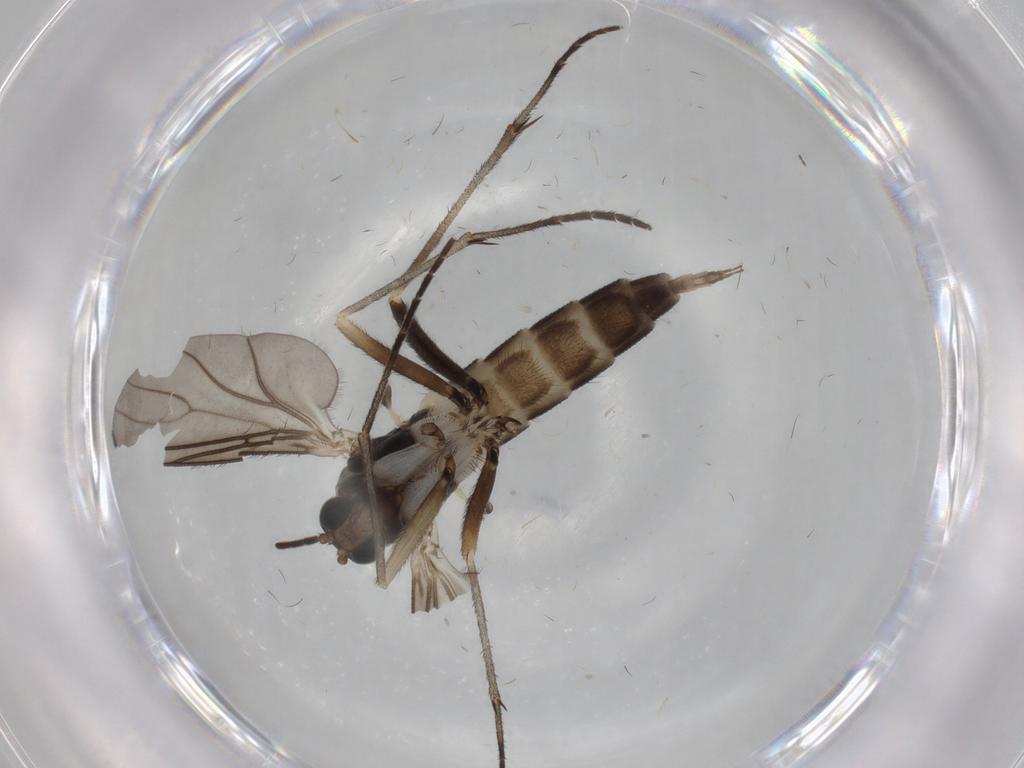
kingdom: Animalia
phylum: Arthropoda
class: Insecta
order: Diptera
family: Sciaridae
